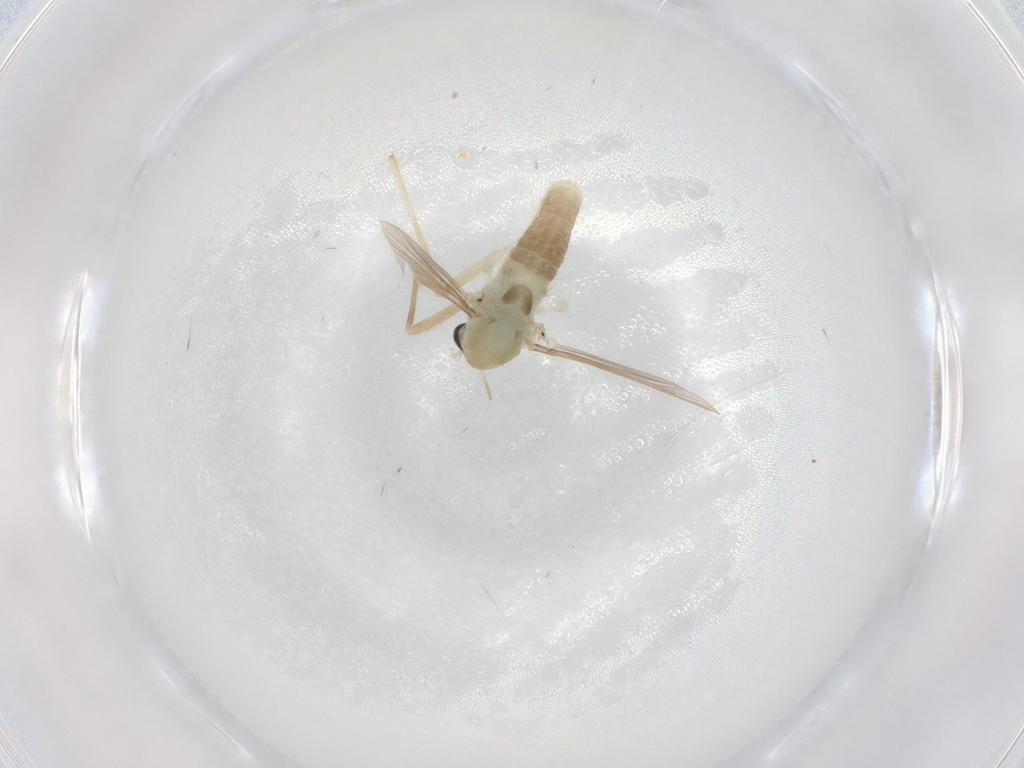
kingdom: Animalia
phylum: Arthropoda
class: Insecta
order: Diptera
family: Chironomidae
